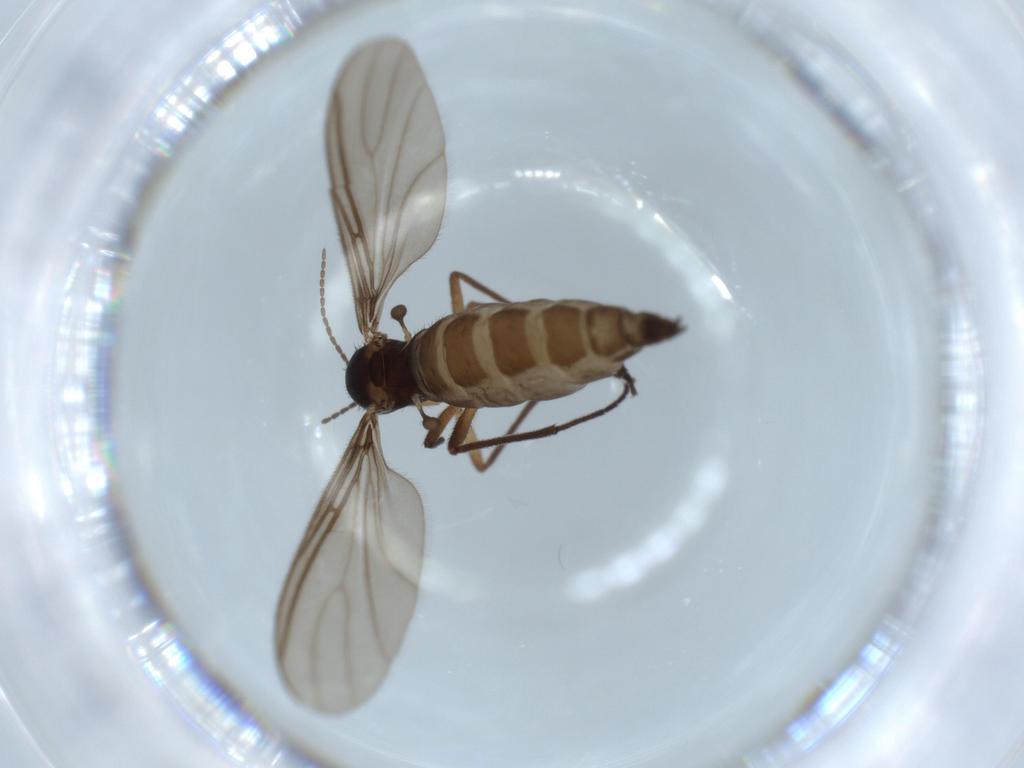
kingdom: Animalia
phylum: Arthropoda
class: Insecta
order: Diptera
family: Sciaridae
